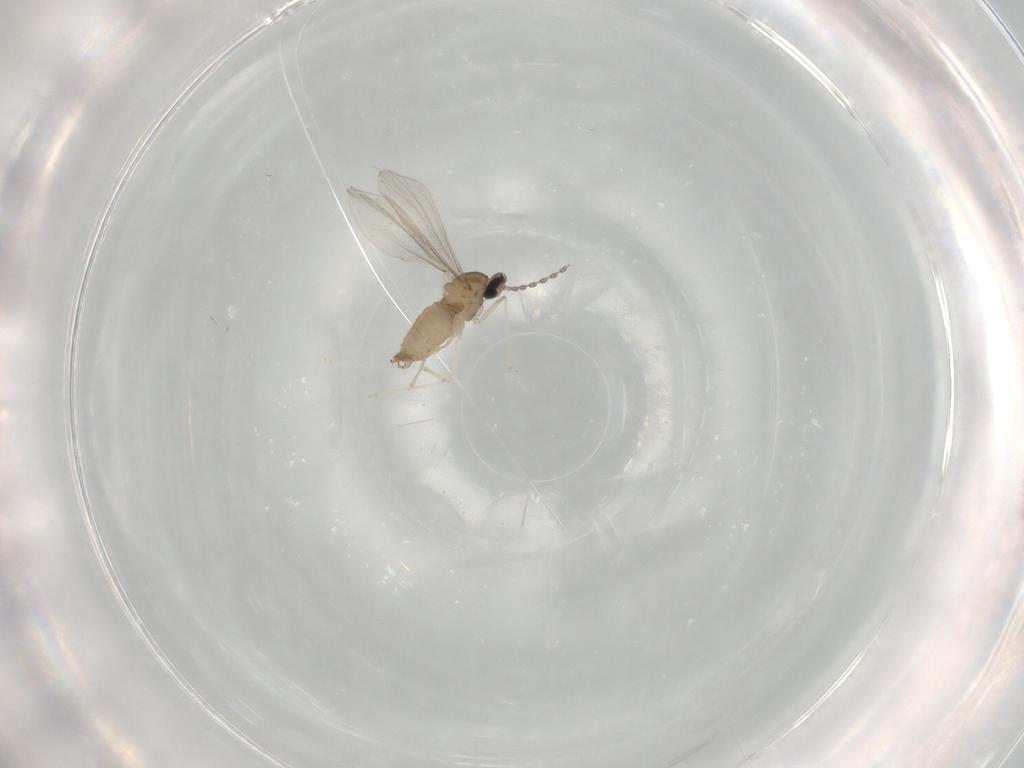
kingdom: Animalia
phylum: Arthropoda
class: Insecta
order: Diptera
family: Cecidomyiidae
